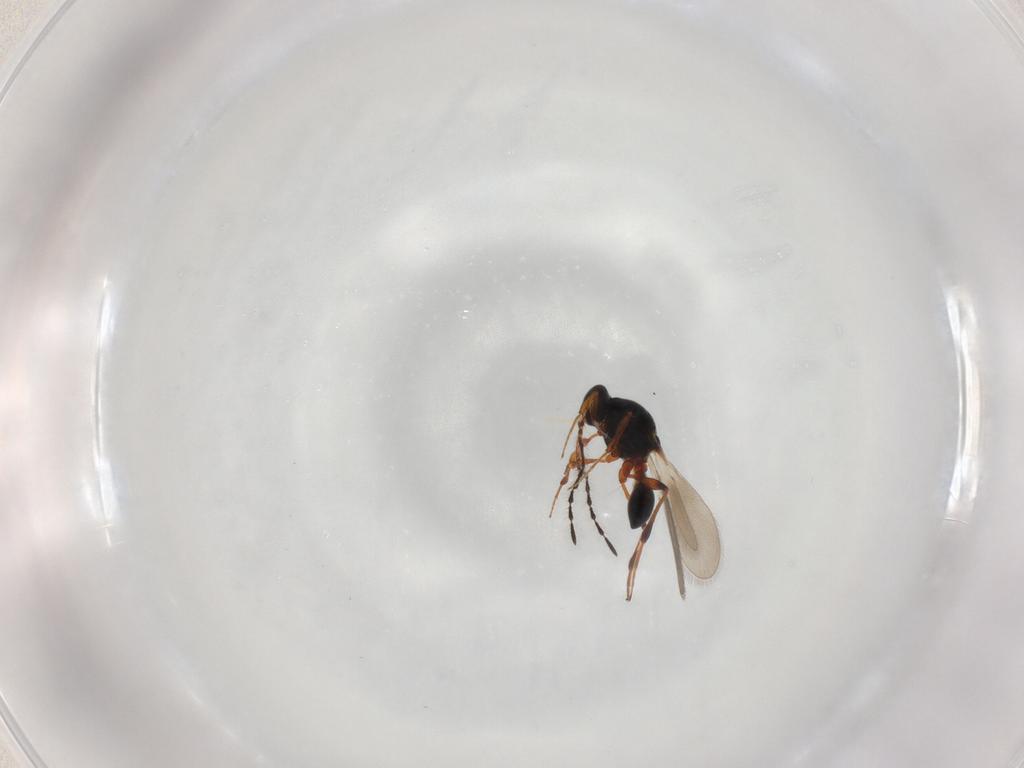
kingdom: Animalia
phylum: Arthropoda
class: Insecta
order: Hymenoptera
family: Platygastridae
